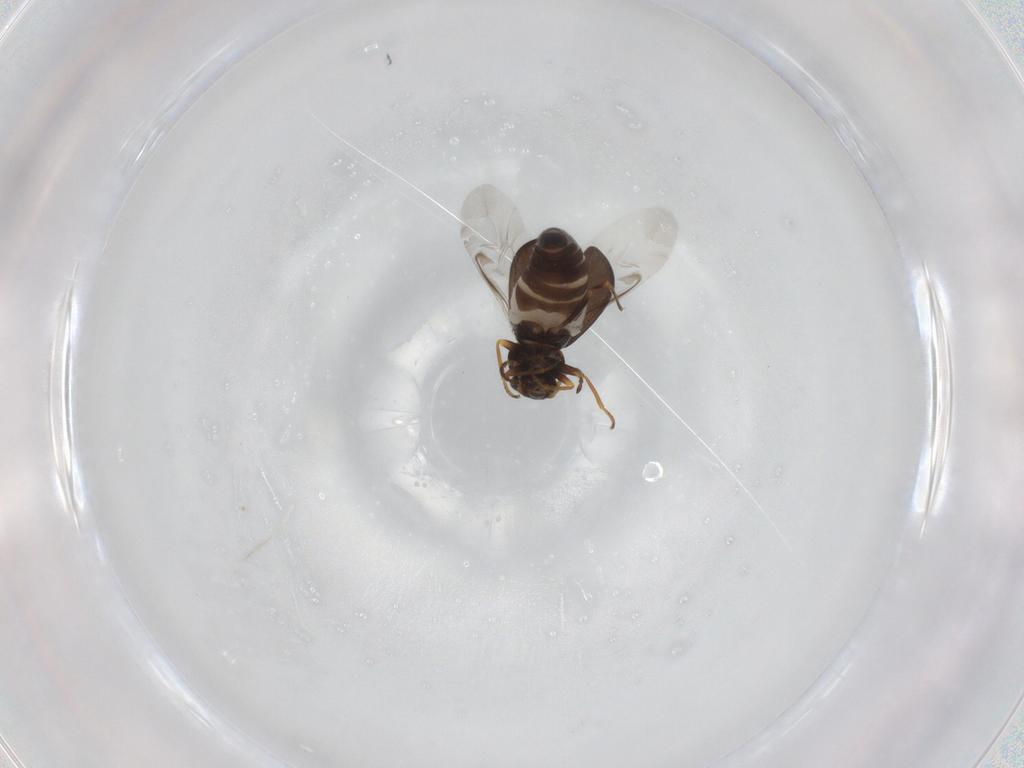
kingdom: Animalia
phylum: Arthropoda
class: Insecta
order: Coleoptera
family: Melyridae
